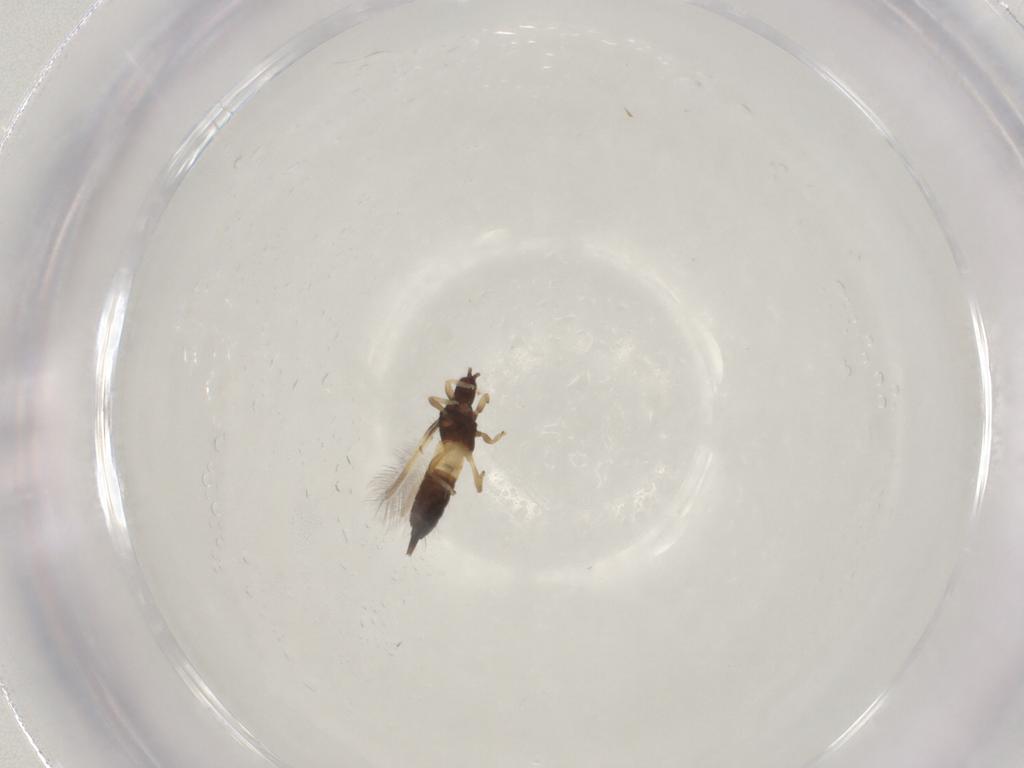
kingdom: Animalia
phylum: Arthropoda
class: Insecta
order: Thysanoptera
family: Phlaeothripidae
